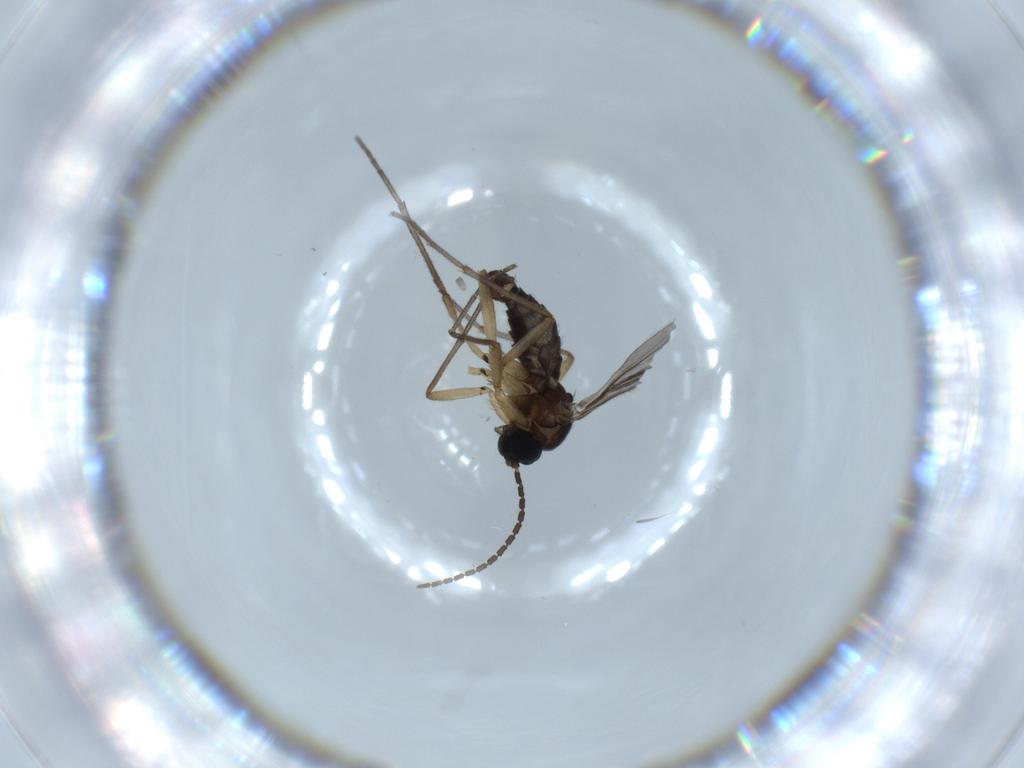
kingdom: Animalia
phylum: Arthropoda
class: Insecta
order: Diptera
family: Sciaridae
